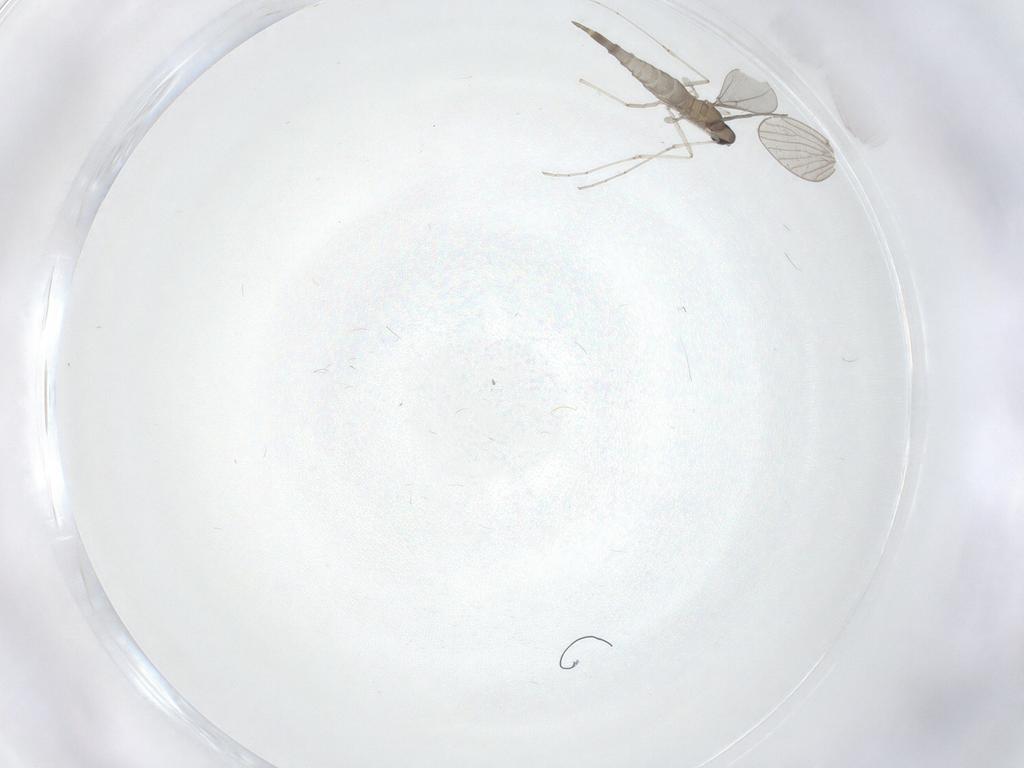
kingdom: Animalia
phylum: Arthropoda
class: Insecta
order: Diptera
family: Cecidomyiidae
